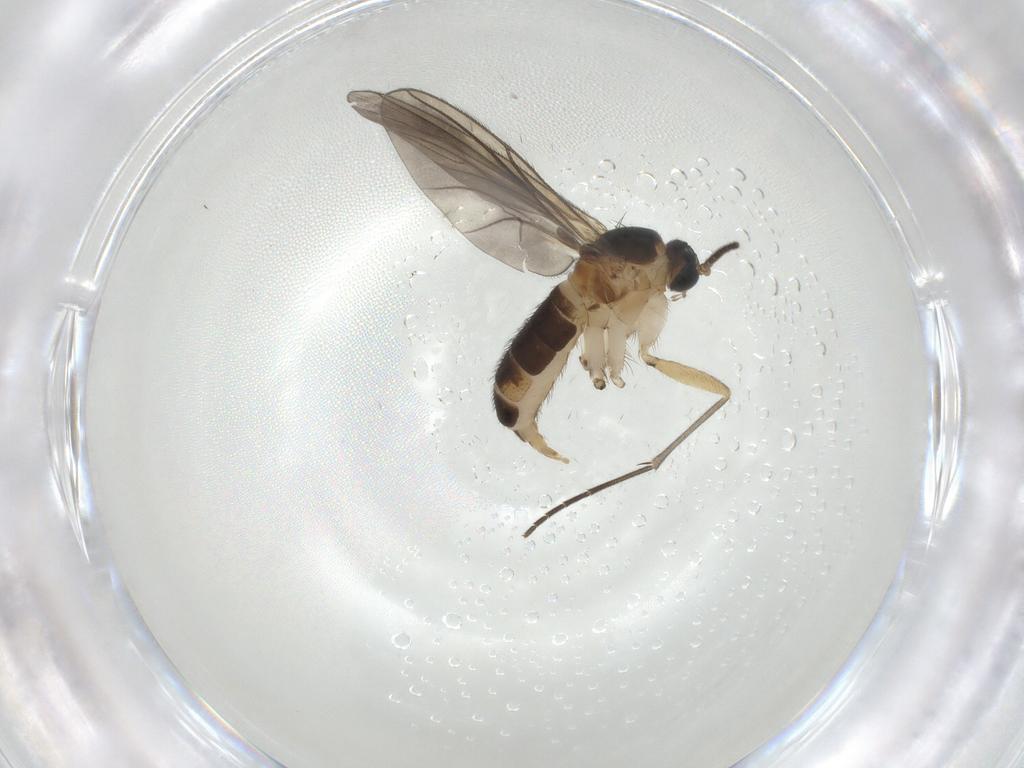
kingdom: Animalia
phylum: Arthropoda
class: Insecta
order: Diptera
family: Sciaridae
